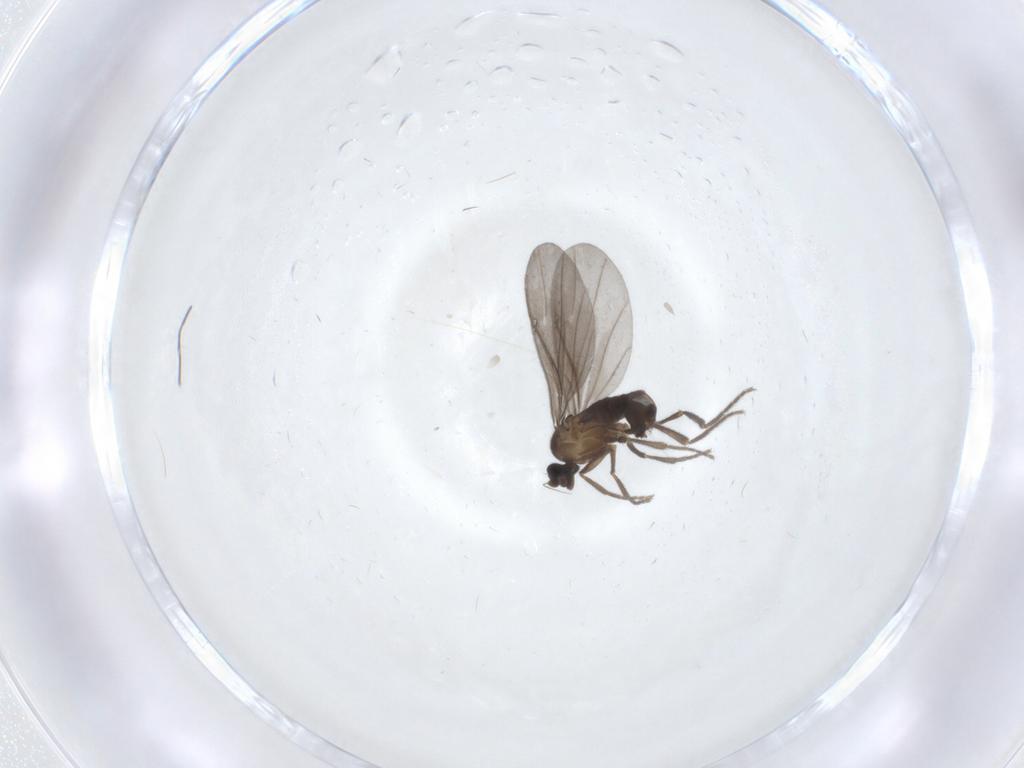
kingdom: Animalia
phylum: Arthropoda
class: Insecta
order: Diptera
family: Phoridae
